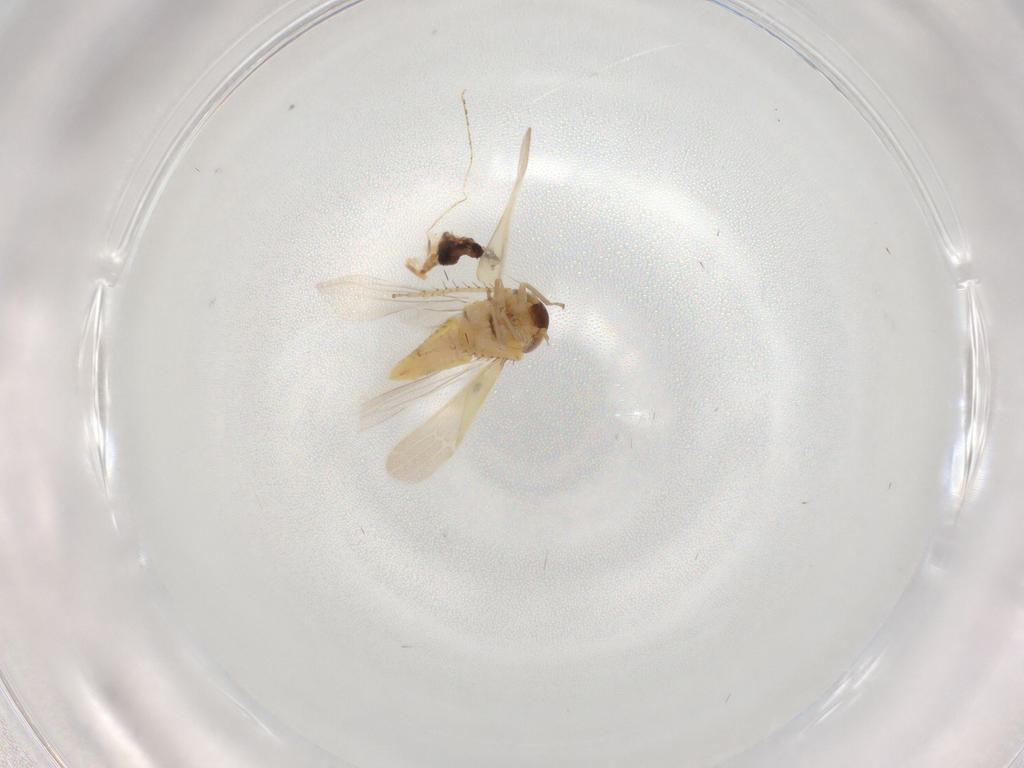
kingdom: Animalia
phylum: Arthropoda
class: Insecta
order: Hemiptera
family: Cicadellidae
